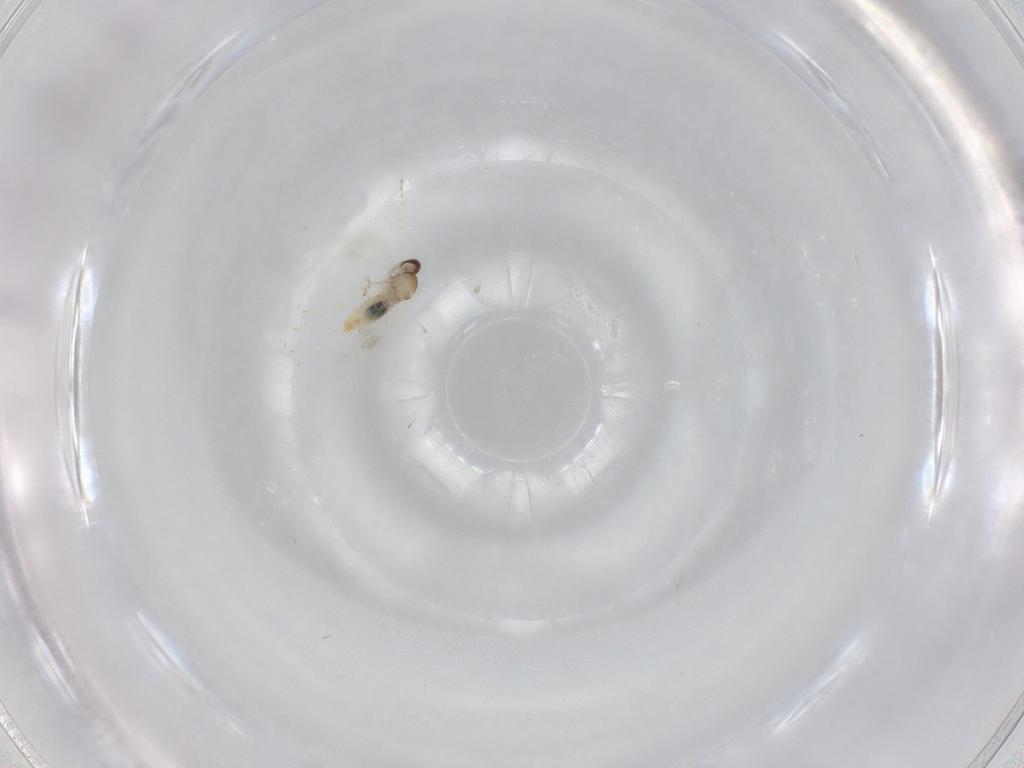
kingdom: Animalia
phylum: Arthropoda
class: Insecta
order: Diptera
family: Cecidomyiidae
